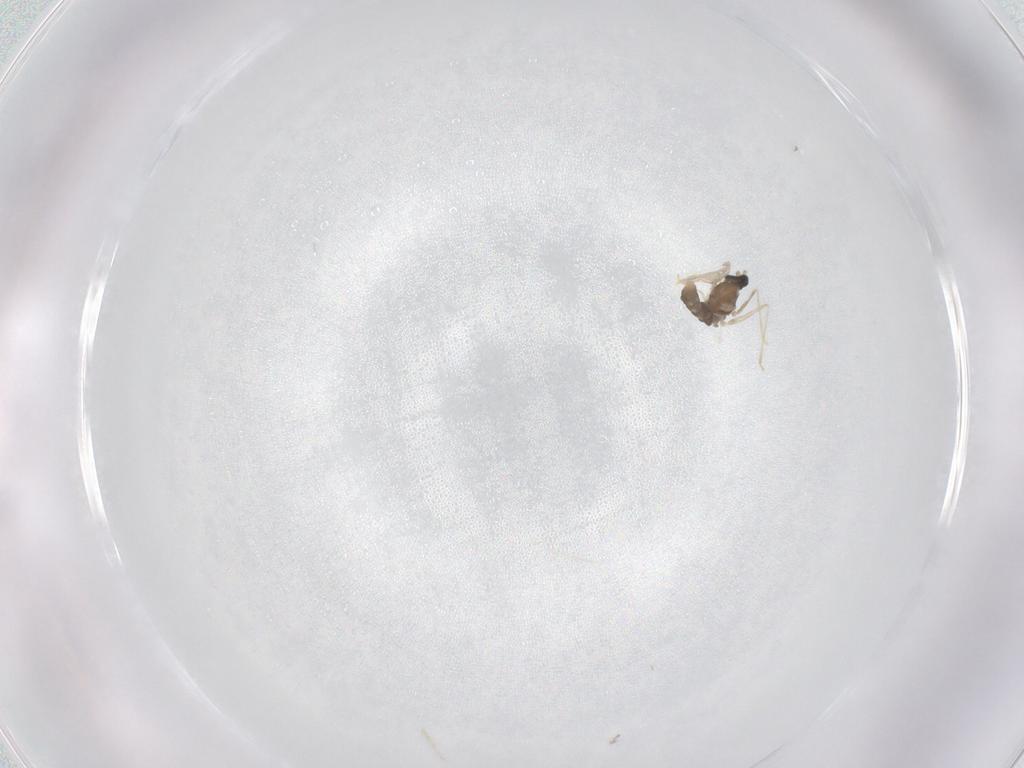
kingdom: Animalia
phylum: Arthropoda
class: Insecta
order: Diptera
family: Cecidomyiidae
